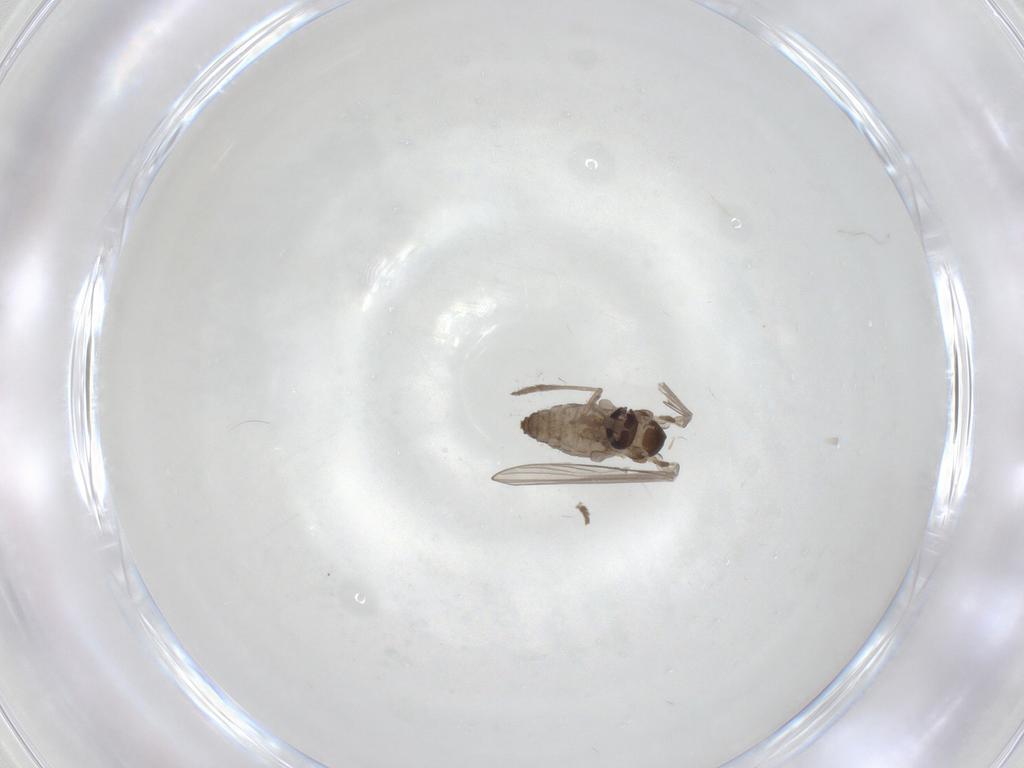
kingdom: Animalia
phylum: Arthropoda
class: Insecta
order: Diptera
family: Psychodidae
